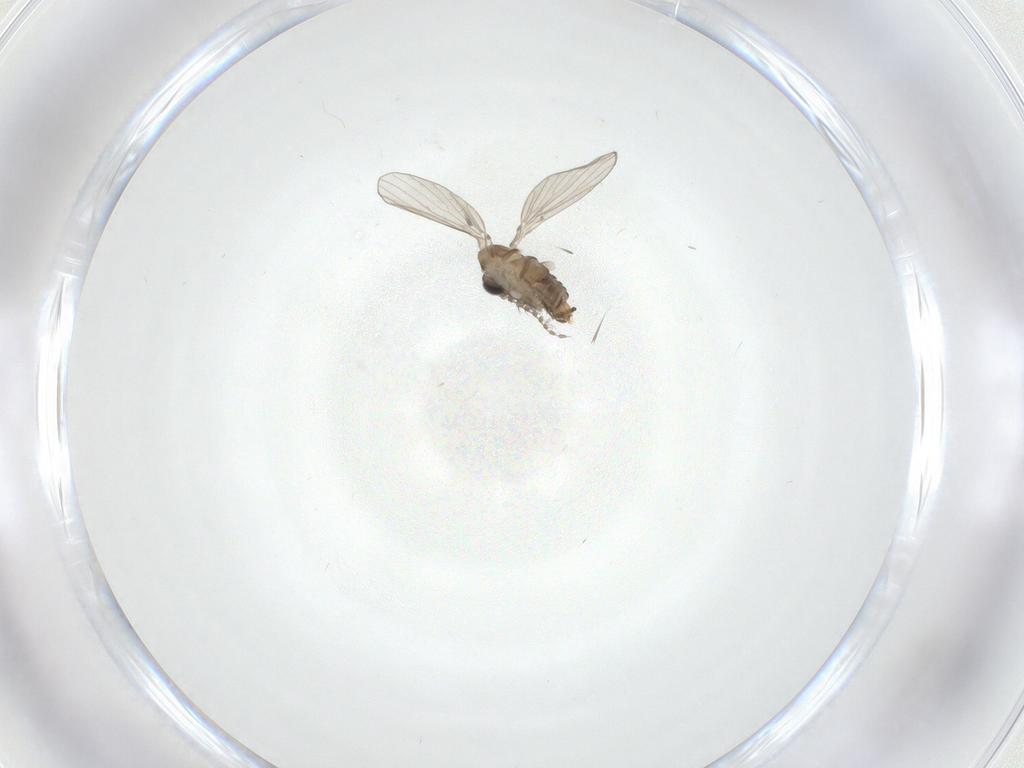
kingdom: Animalia
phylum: Arthropoda
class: Insecta
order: Diptera
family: Psychodidae
